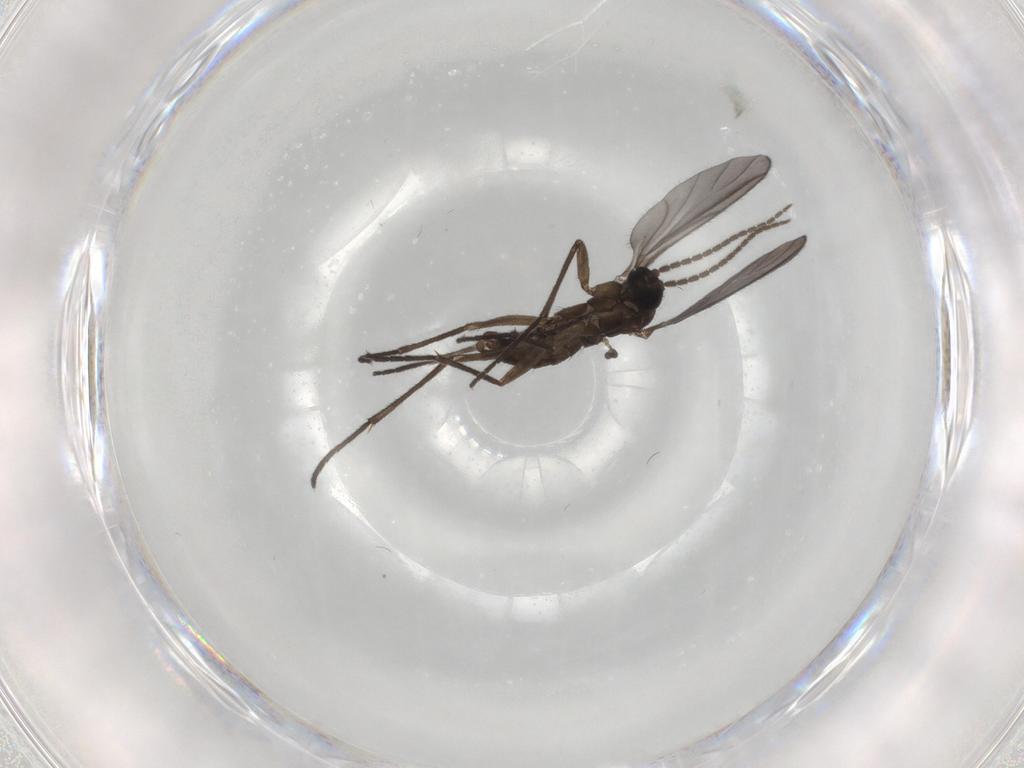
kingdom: Animalia
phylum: Arthropoda
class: Insecta
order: Diptera
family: Sciaridae
